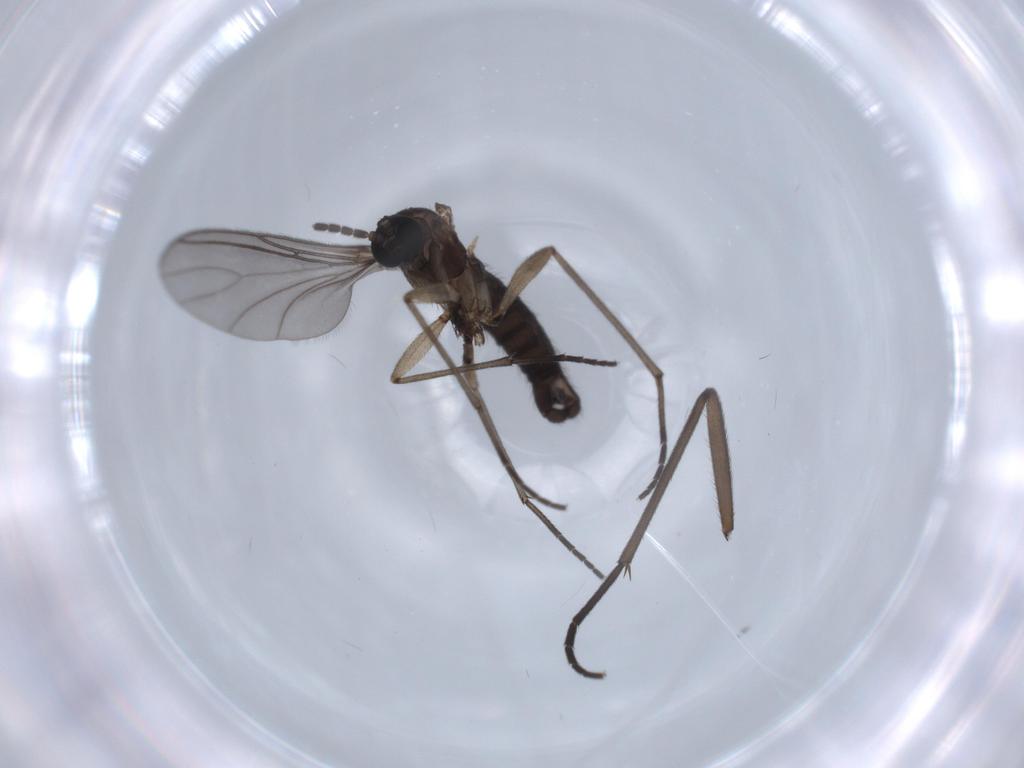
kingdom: Animalia
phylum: Arthropoda
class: Insecta
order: Diptera
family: Sciaridae
